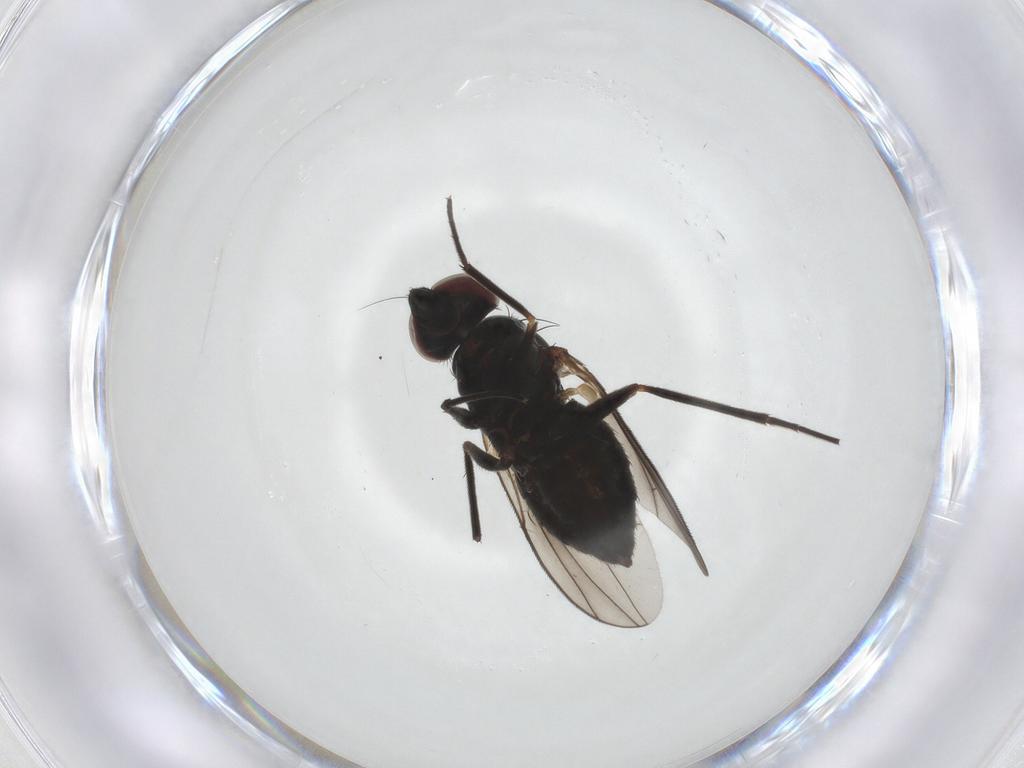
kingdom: Animalia
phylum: Arthropoda
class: Insecta
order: Diptera
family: Sciaridae
